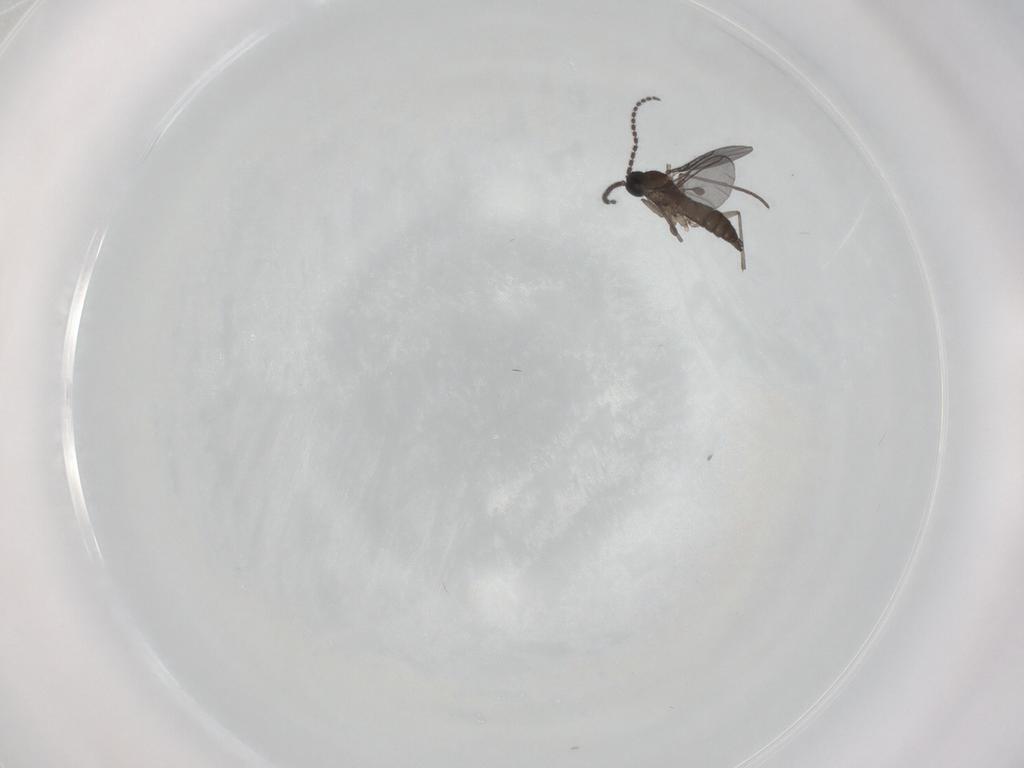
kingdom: Animalia
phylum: Arthropoda
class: Insecta
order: Diptera
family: Sciaridae
